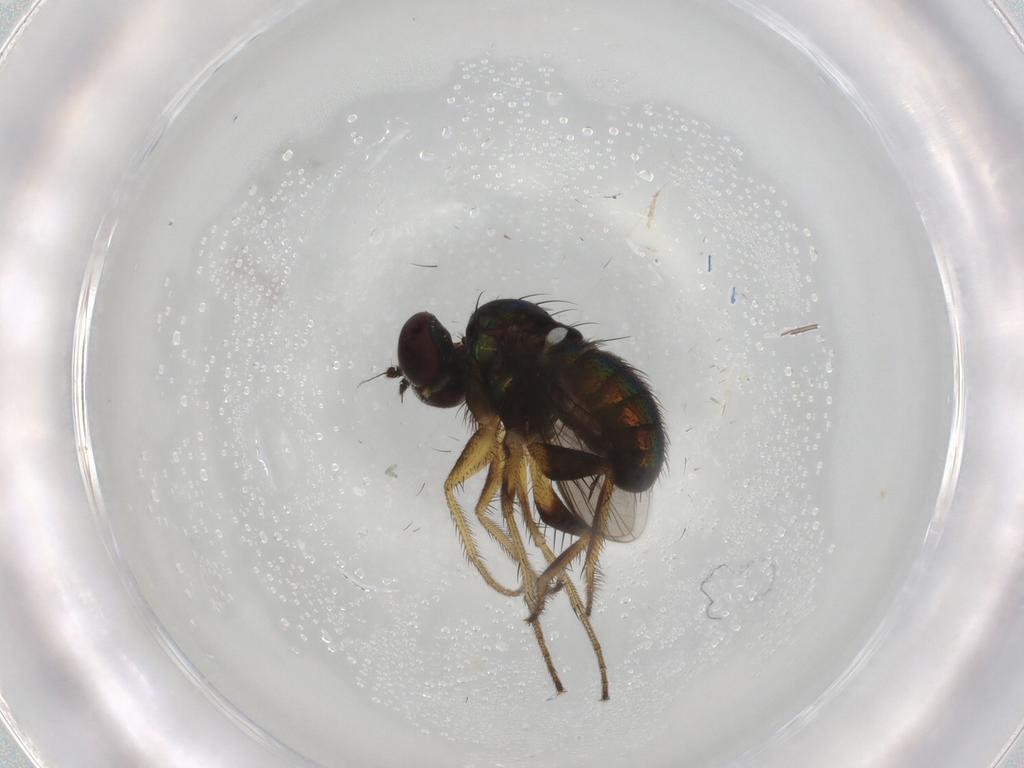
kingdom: Animalia
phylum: Arthropoda
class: Insecta
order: Diptera
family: Dolichopodidae
